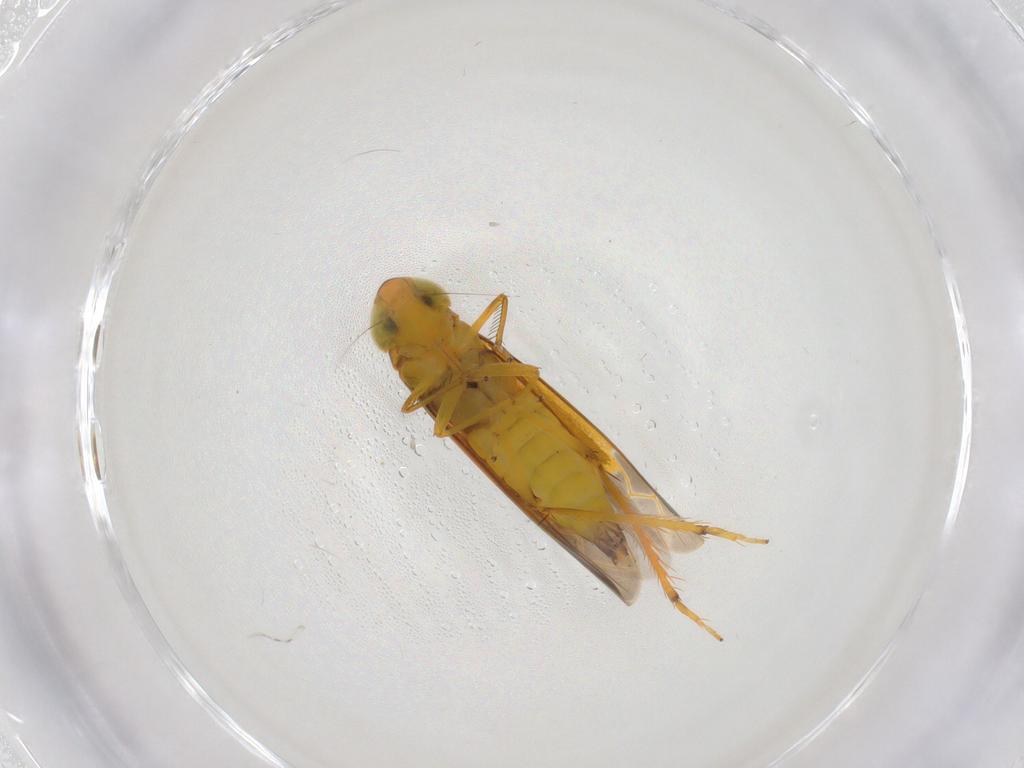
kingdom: Animalia
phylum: Arthropoda
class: Insecta
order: Hemiptera
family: Cicadellidae
